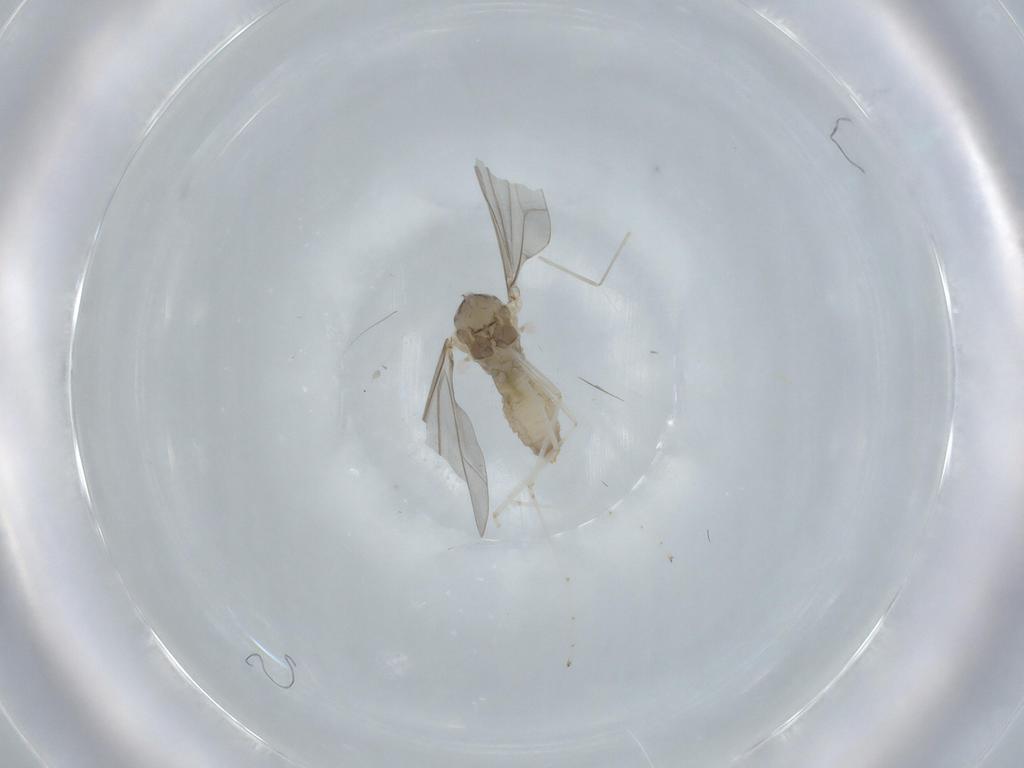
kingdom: Animalia
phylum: Arthropoda
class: Insecta
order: Diptera
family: Cecidomyiidae
